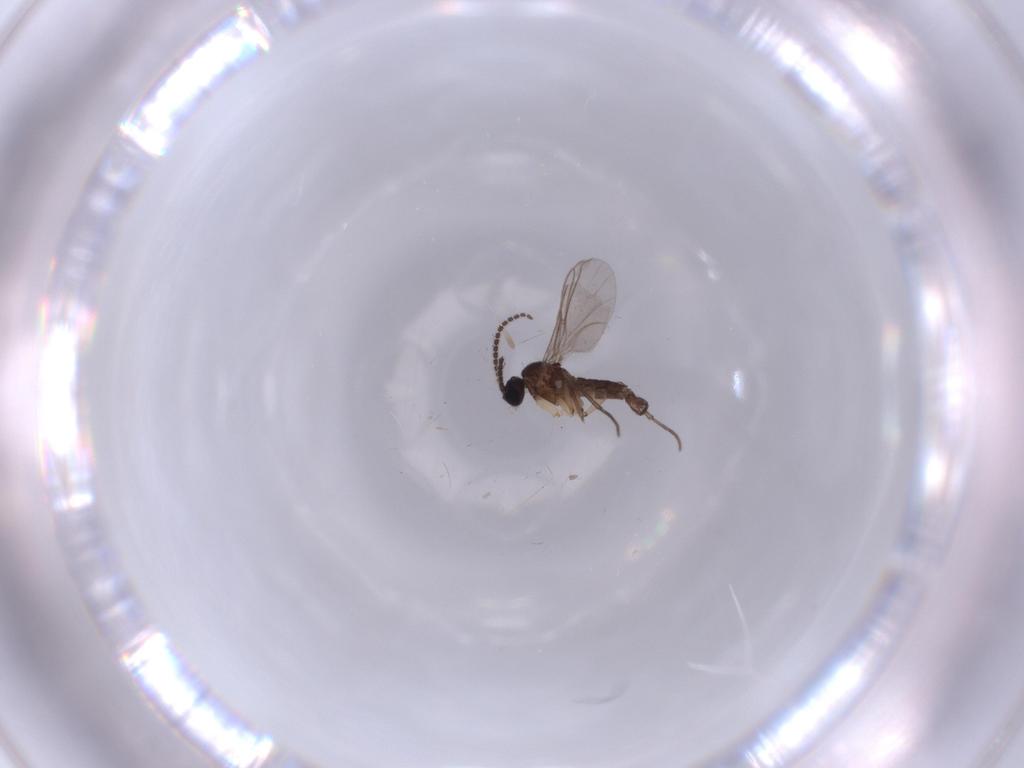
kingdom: Animalia
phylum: Arthropoda
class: Insecta
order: Diptera
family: Sciaridae
